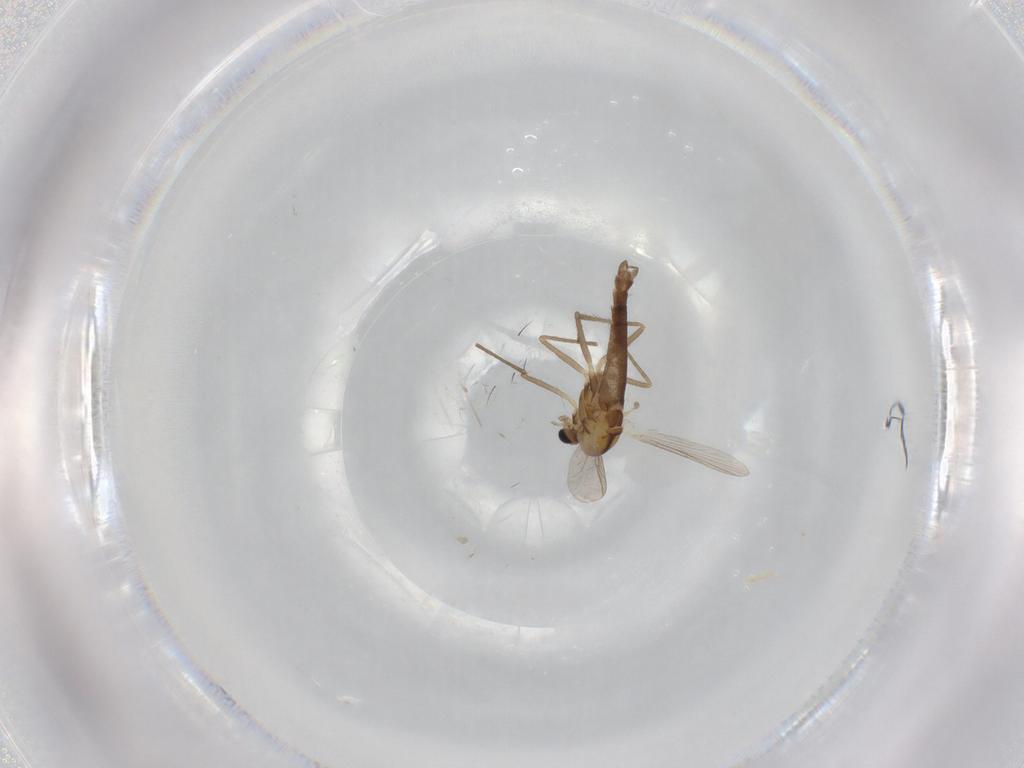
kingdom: Animalia
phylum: Arthropoda
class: Insecta
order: Diptera
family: Chironomidae
